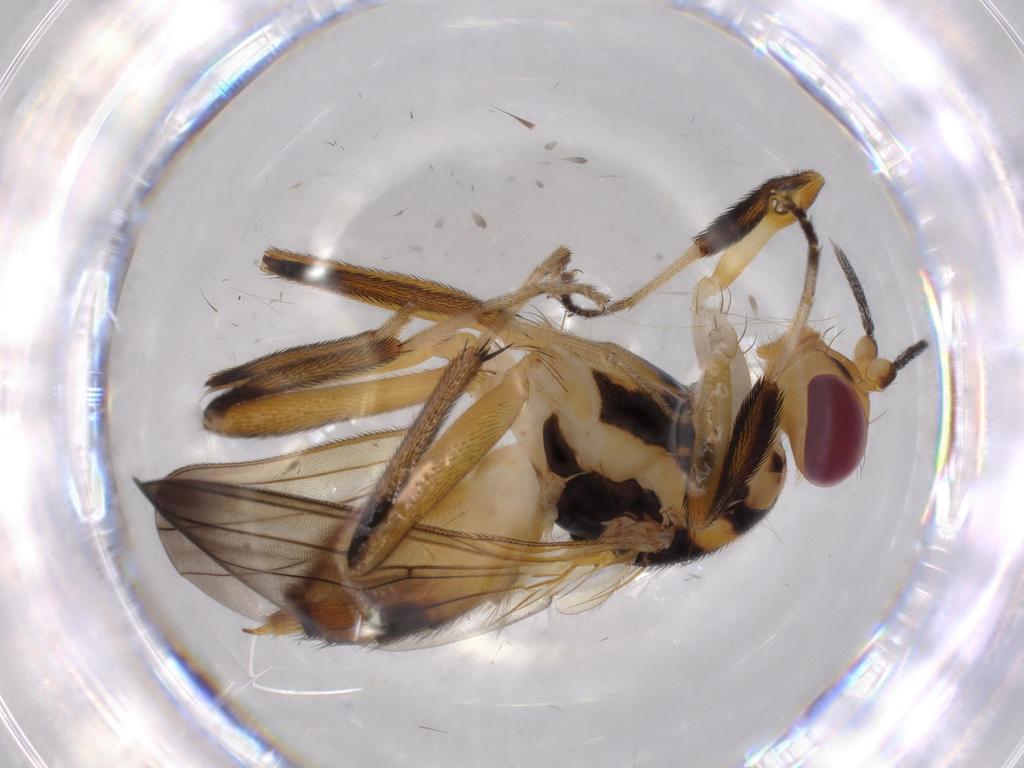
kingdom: Animalia
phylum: Arthropoda
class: Insecta
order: Diptera
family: Clusiidae
